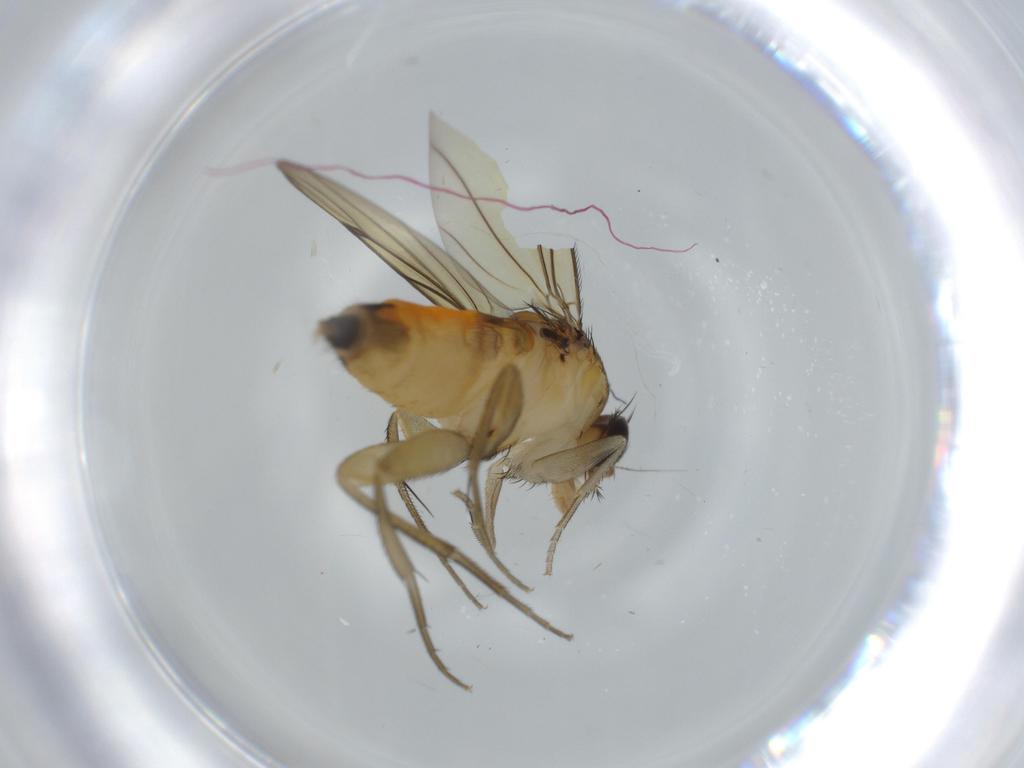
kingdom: Animalia
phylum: Arthropoda
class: Insecta
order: Diptera
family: Phoridae
